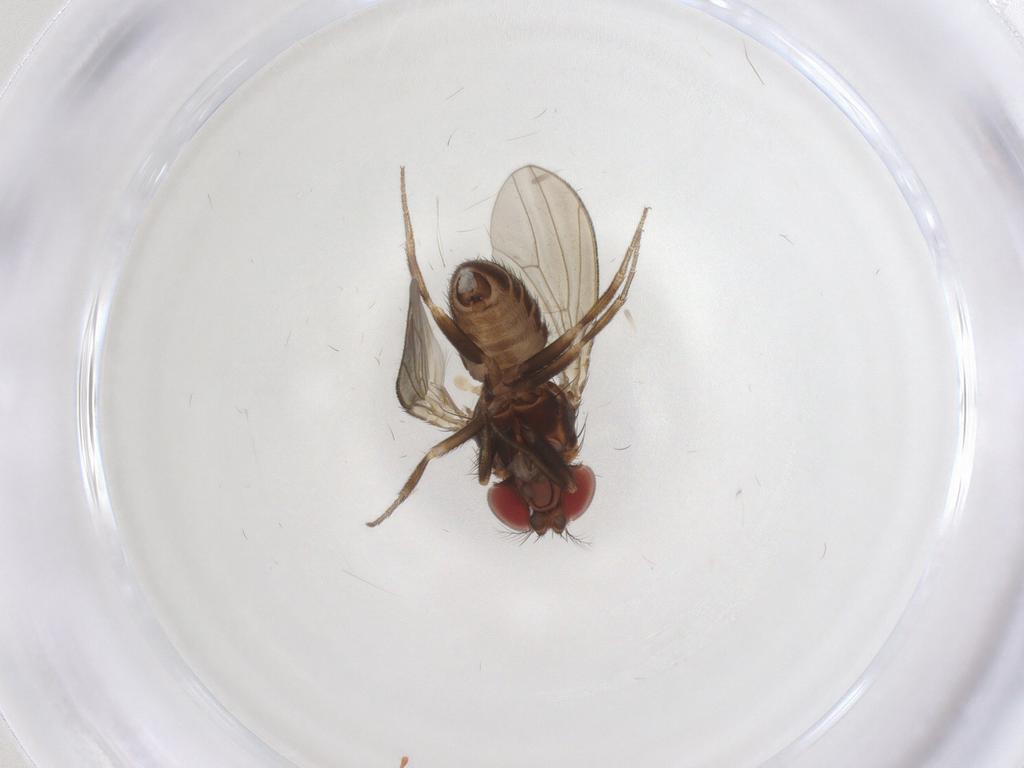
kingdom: Animalia
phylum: Arthropoda
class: Insecta
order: Diptera
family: Drosophilidae
